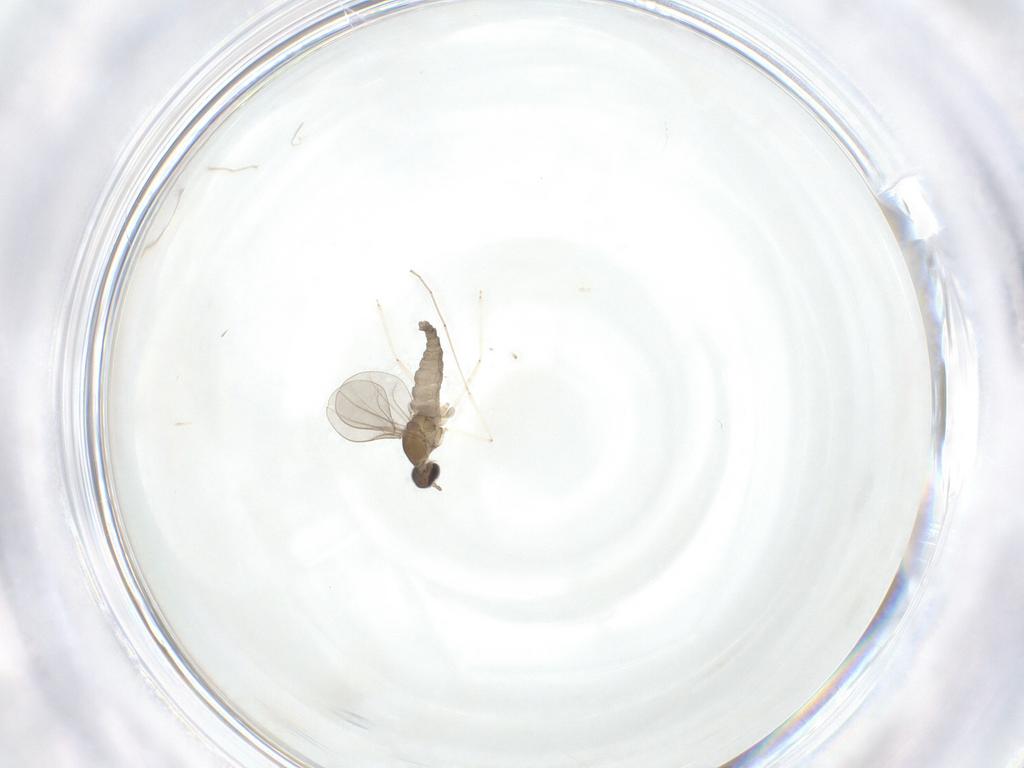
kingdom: Animalia
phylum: Arthropoda
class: Insecta
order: Diptera
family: Cecidomyiidae
